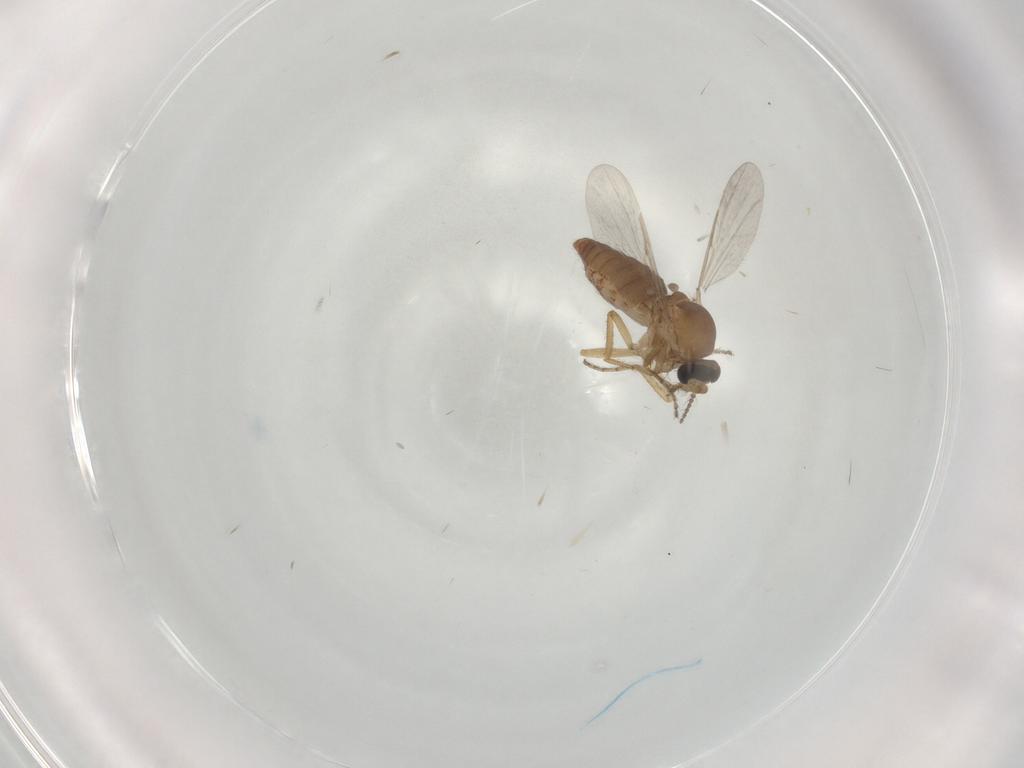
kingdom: Animalia
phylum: Arthropoda
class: Insecta
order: Diptera
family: Ceratopogonidae
